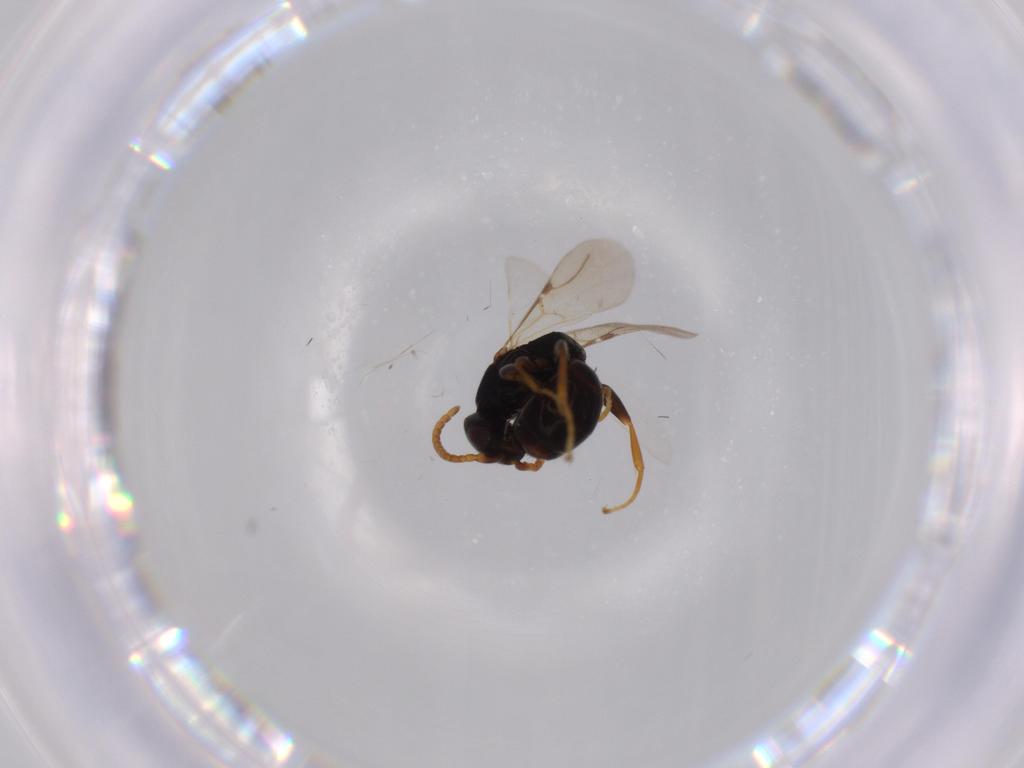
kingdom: Animalia
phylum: Arthropoda
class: Insecta
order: Hymenoptera
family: Bethylidae
